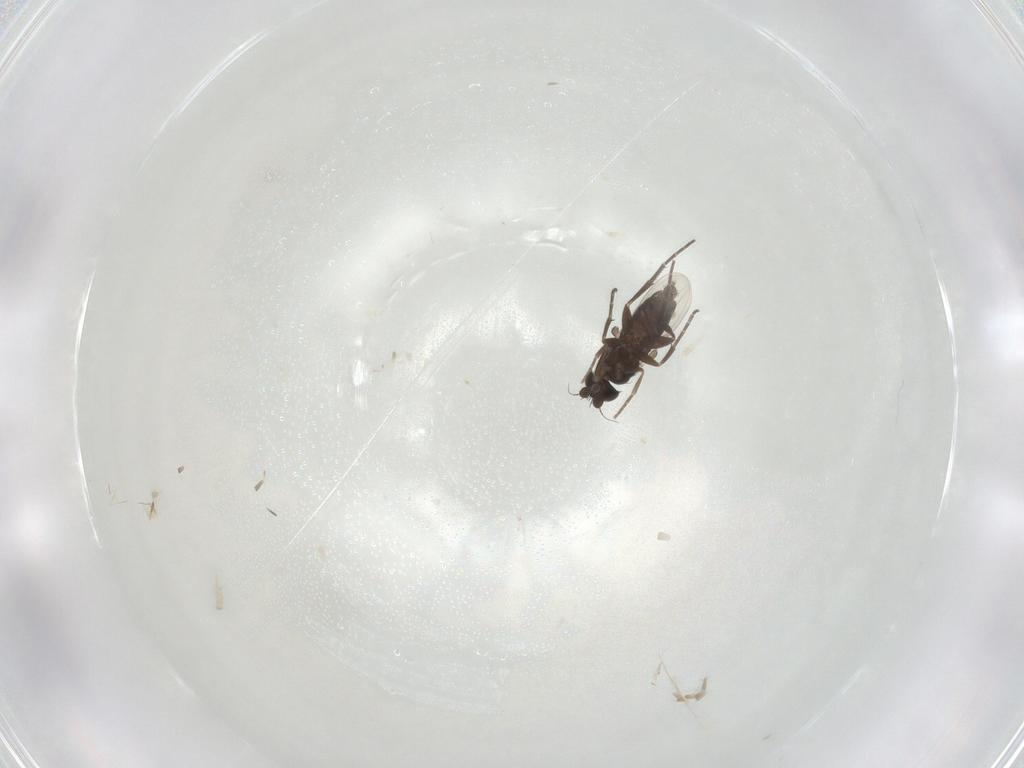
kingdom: Animalia
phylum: Arthropoda
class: Insecta
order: Diptera
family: Phoridae
